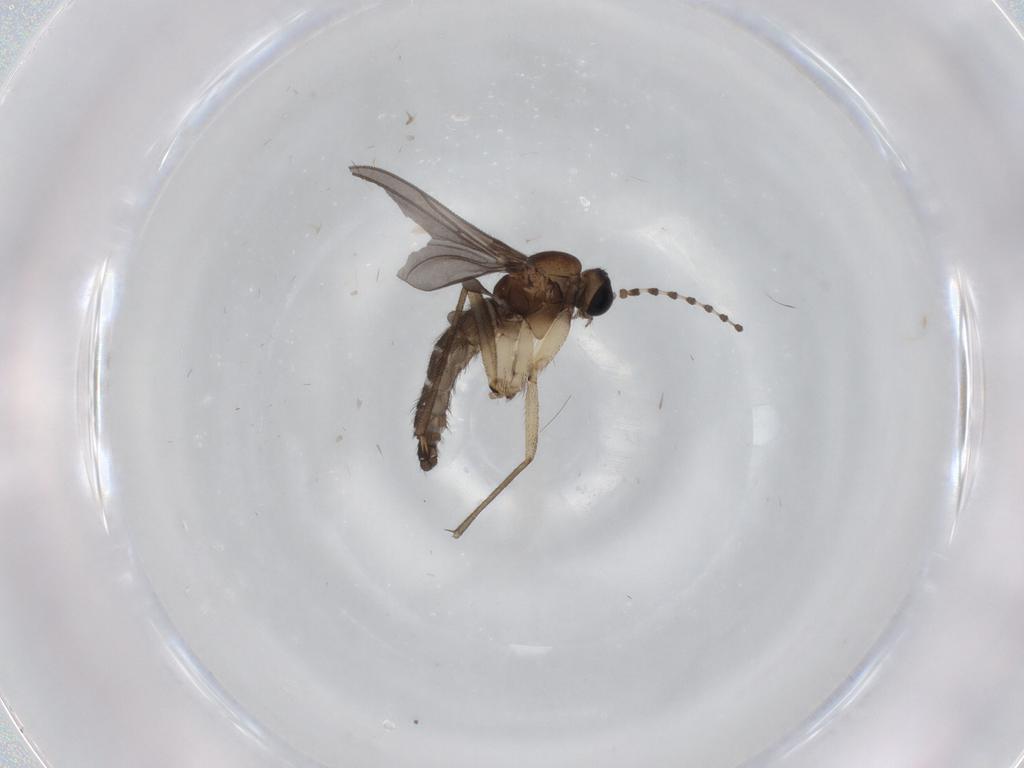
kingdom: Animalia
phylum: Arthropoda
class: Insecta
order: Diptera
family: Sciaridae
